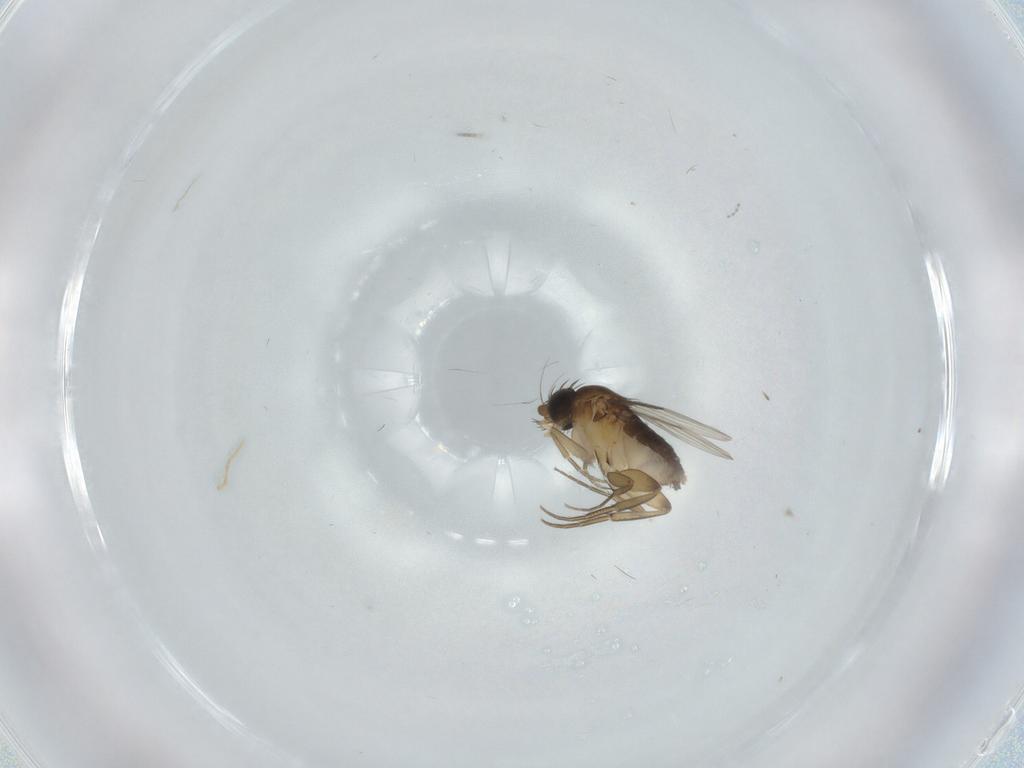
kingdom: Animalia
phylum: Arthropoda
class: Insecta
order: Diptera
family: Phoridae
